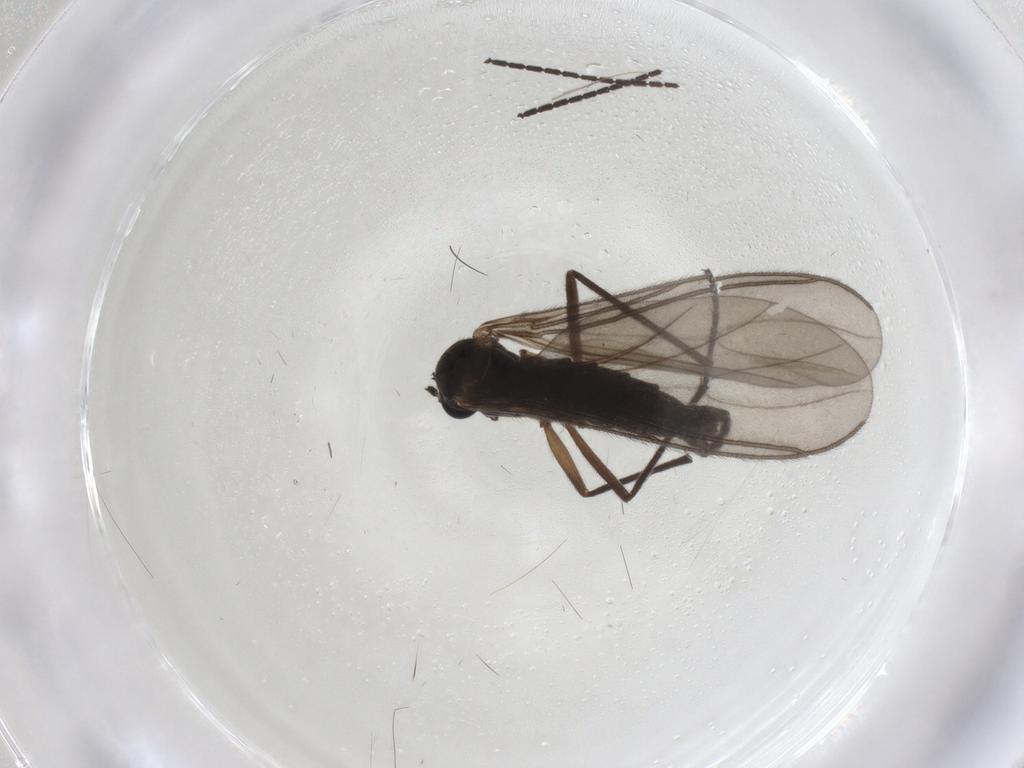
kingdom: Animalia
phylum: Arthropoda
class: Insecta
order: Diptera
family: Sciaridae
